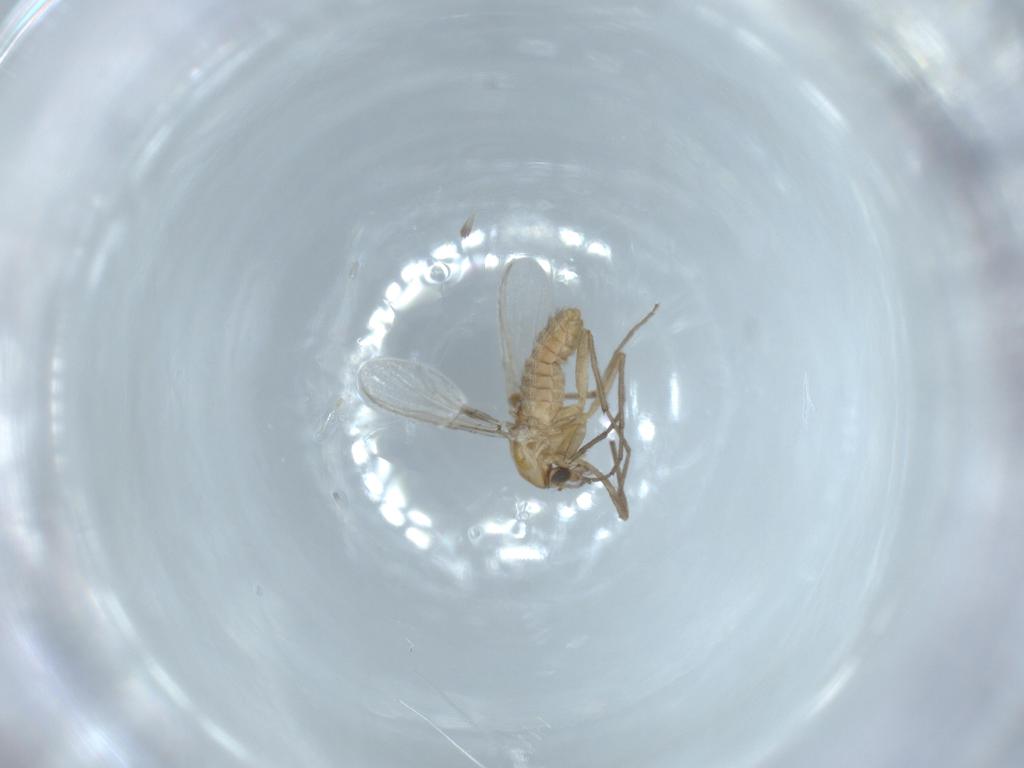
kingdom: Animalia
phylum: Arthropoda
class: Insecta
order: Diptera
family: Chironomidae
